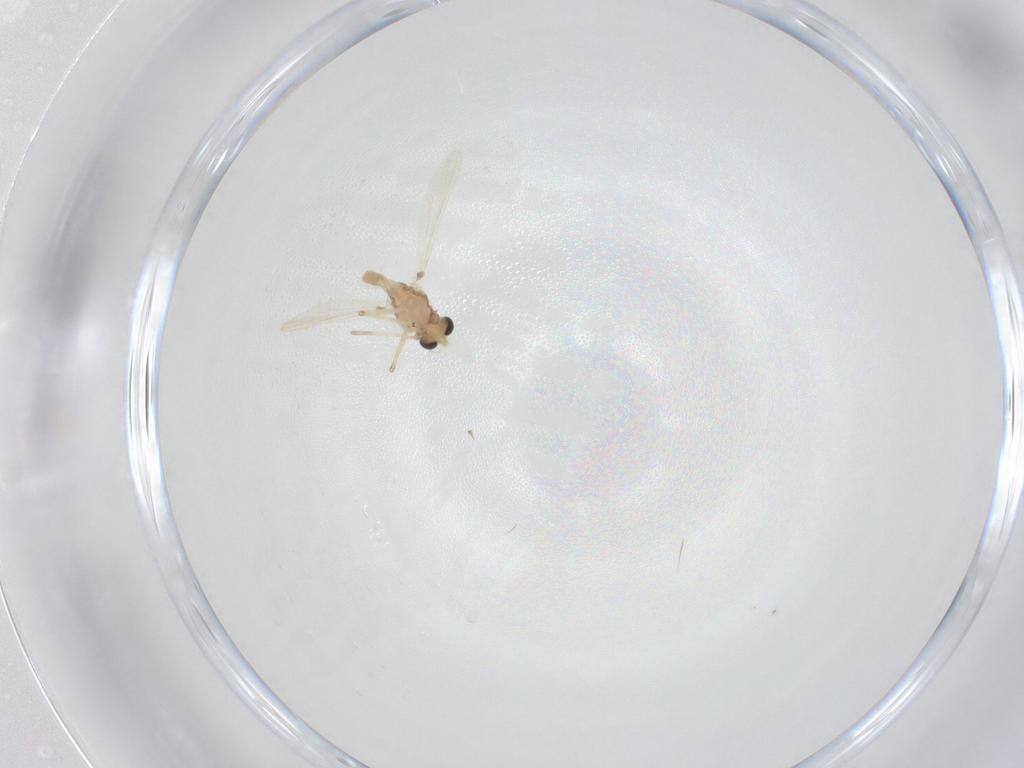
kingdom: Animalia
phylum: Arthropoda
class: Insecta
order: Diptera
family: Chironomidae
